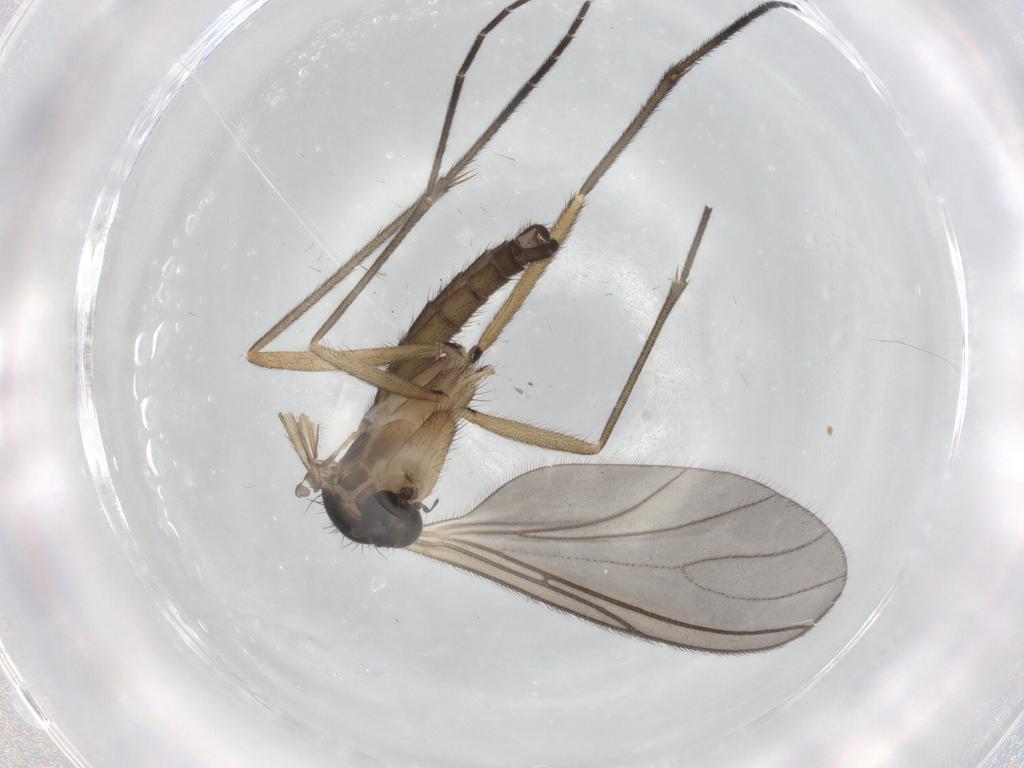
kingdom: Animalia
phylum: Arthropoda
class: Insecta
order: Diptera
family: Sciaridae
